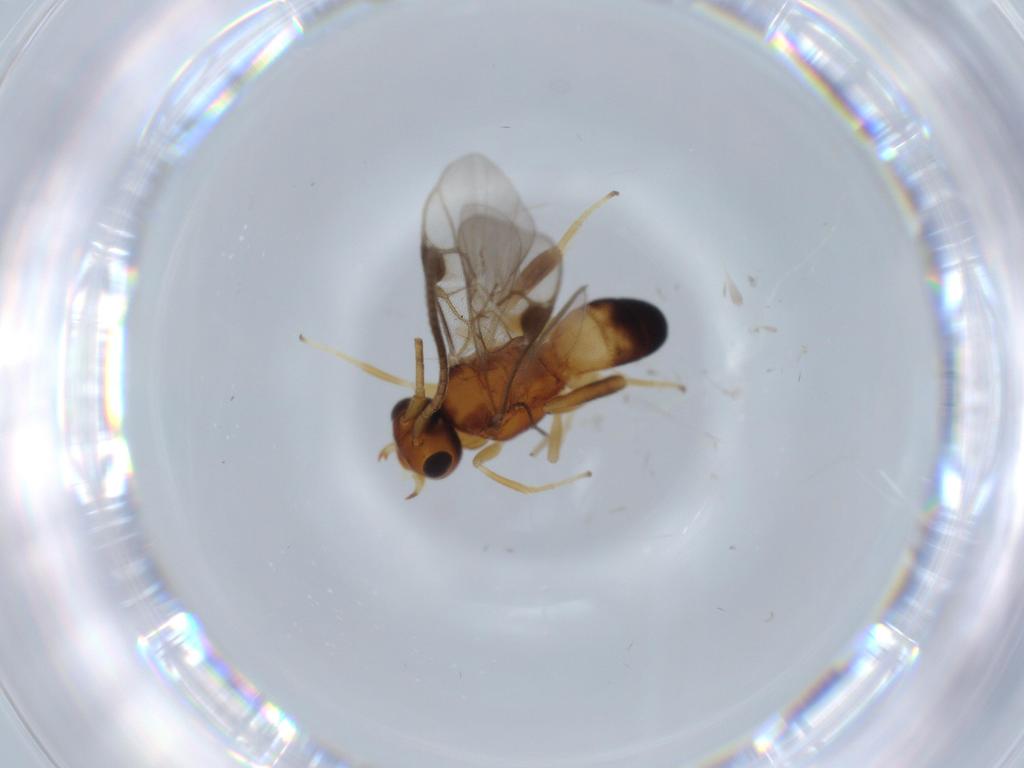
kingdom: Animalia
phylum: Arthropoda
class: Insecta
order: Hymenoptera
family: Braconidae
